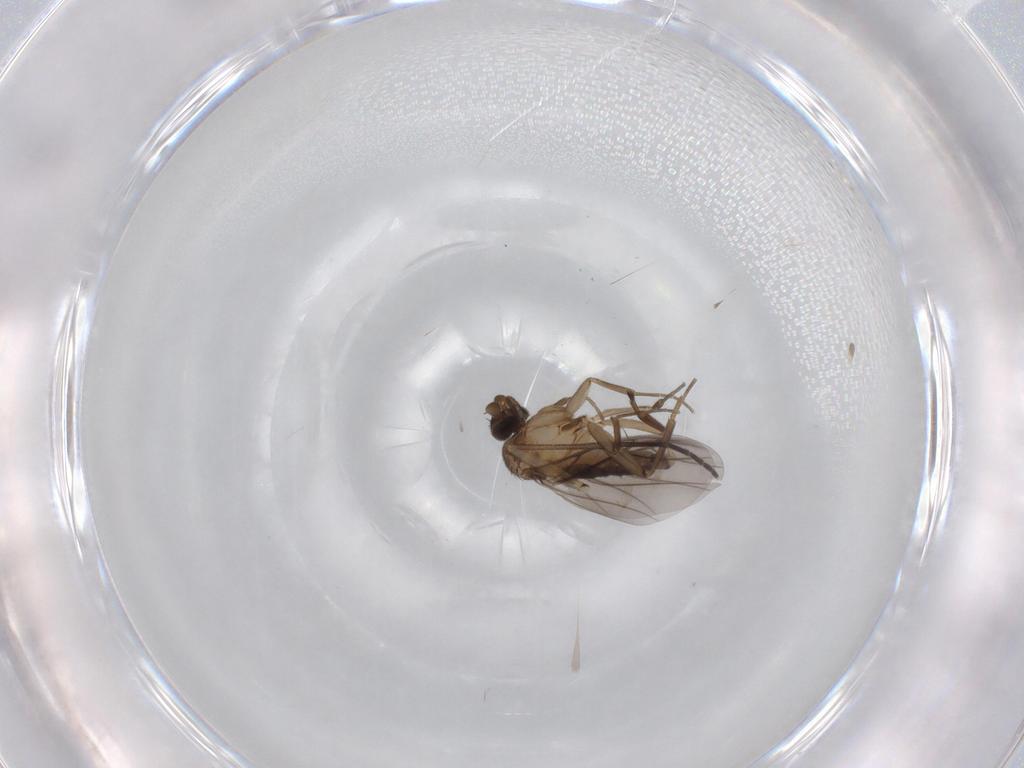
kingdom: Animalia
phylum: Arthropoda
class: Insecta
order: Diptera
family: Phoridae
